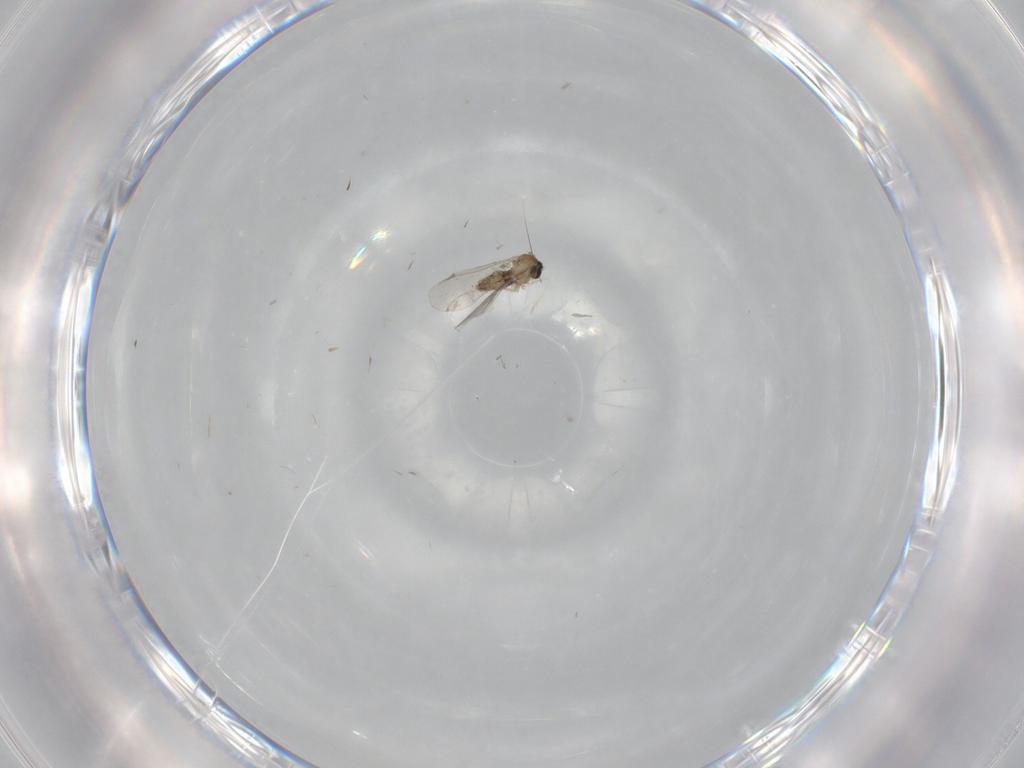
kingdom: Animalia
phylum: Arthropoda
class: Insecta
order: Diptera
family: Cecidomyiidae
